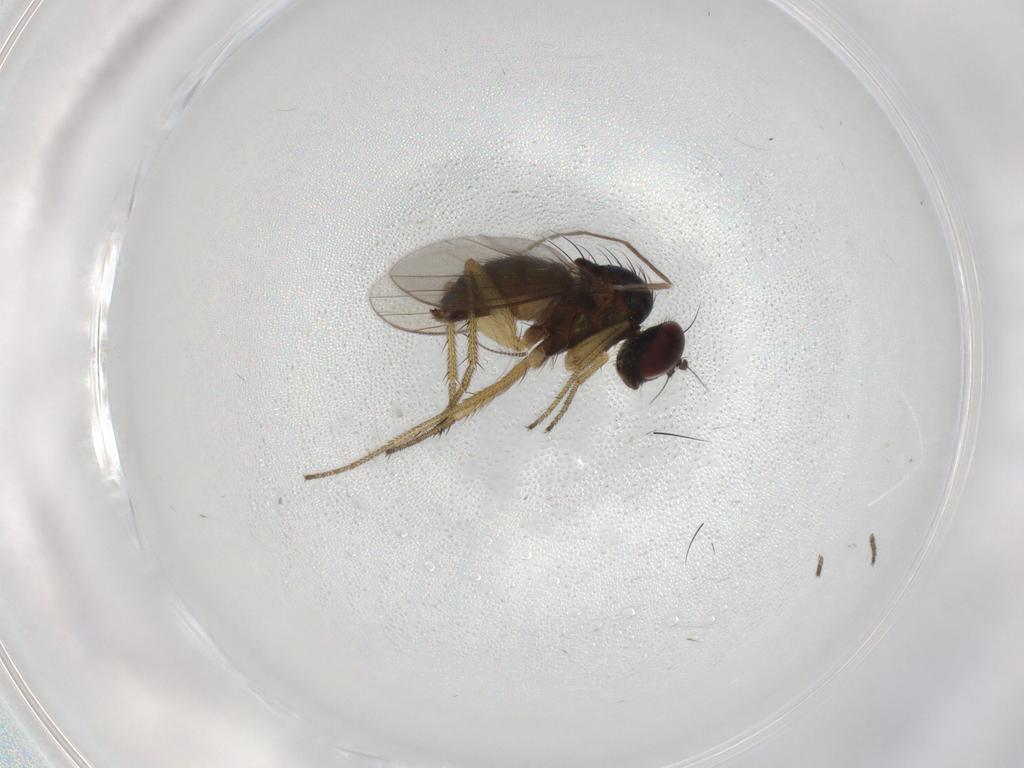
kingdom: Animalia
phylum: Arthropoda
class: Insecta
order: Diptera
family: Chironomidae
